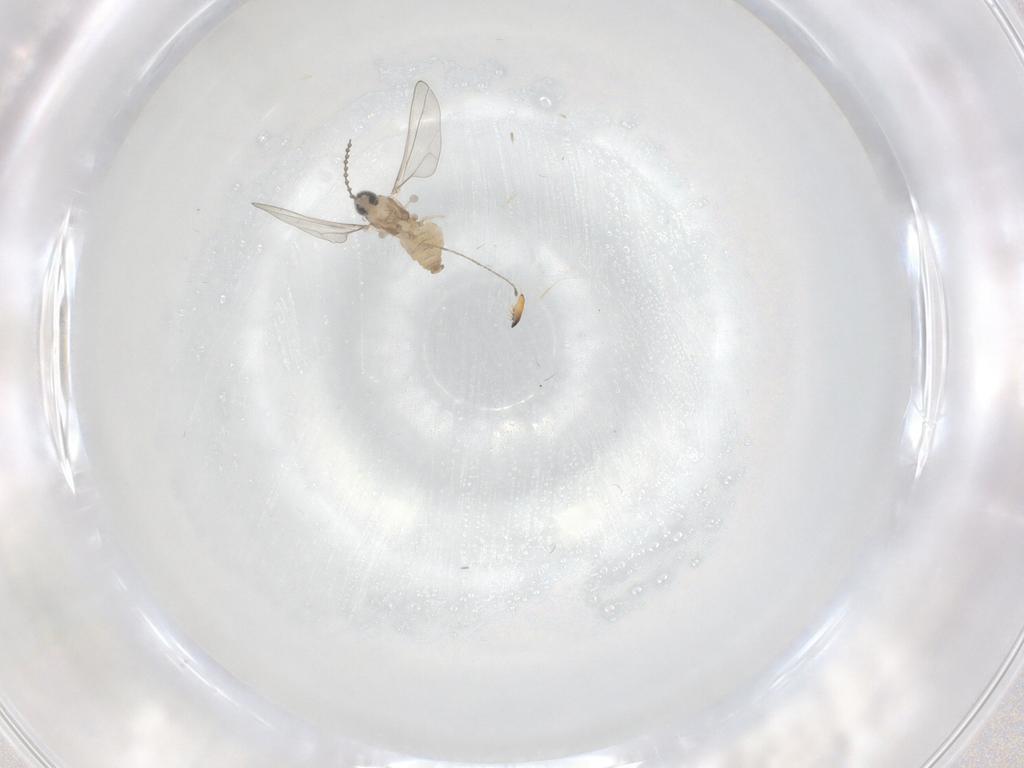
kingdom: Animalia
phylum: Arthropoda
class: Insecta
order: Diptera
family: Cecidomyiidae
